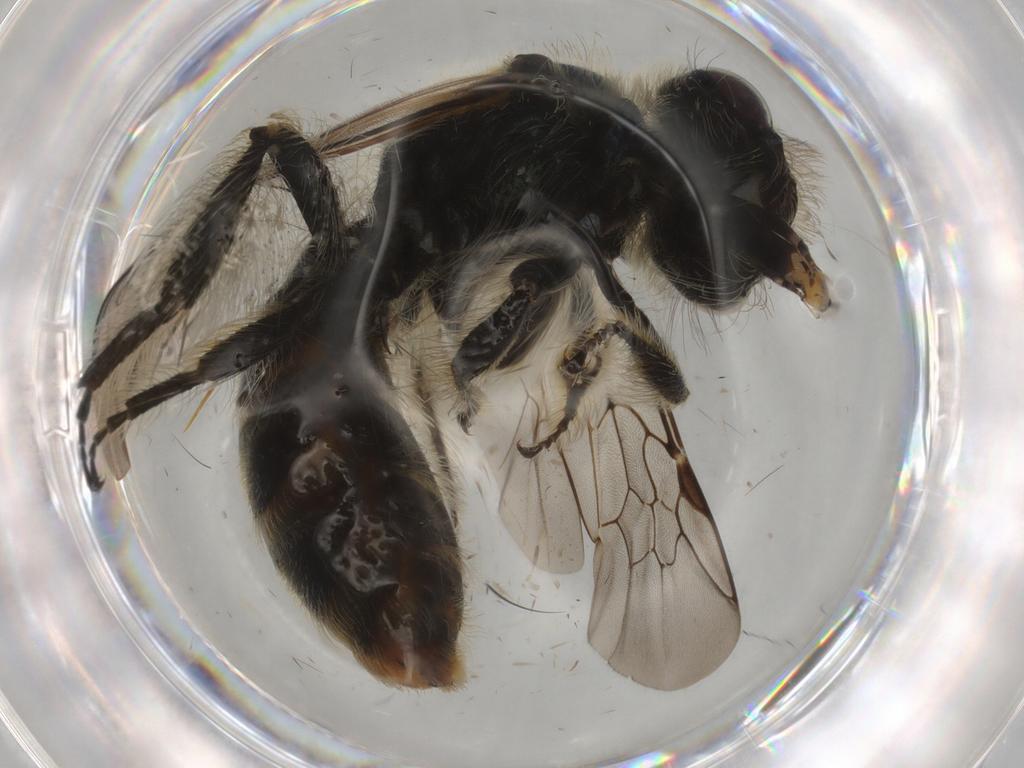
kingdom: Animalia
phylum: Arthropoda
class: Insecta
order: Hymenoptera
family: Halictidae
